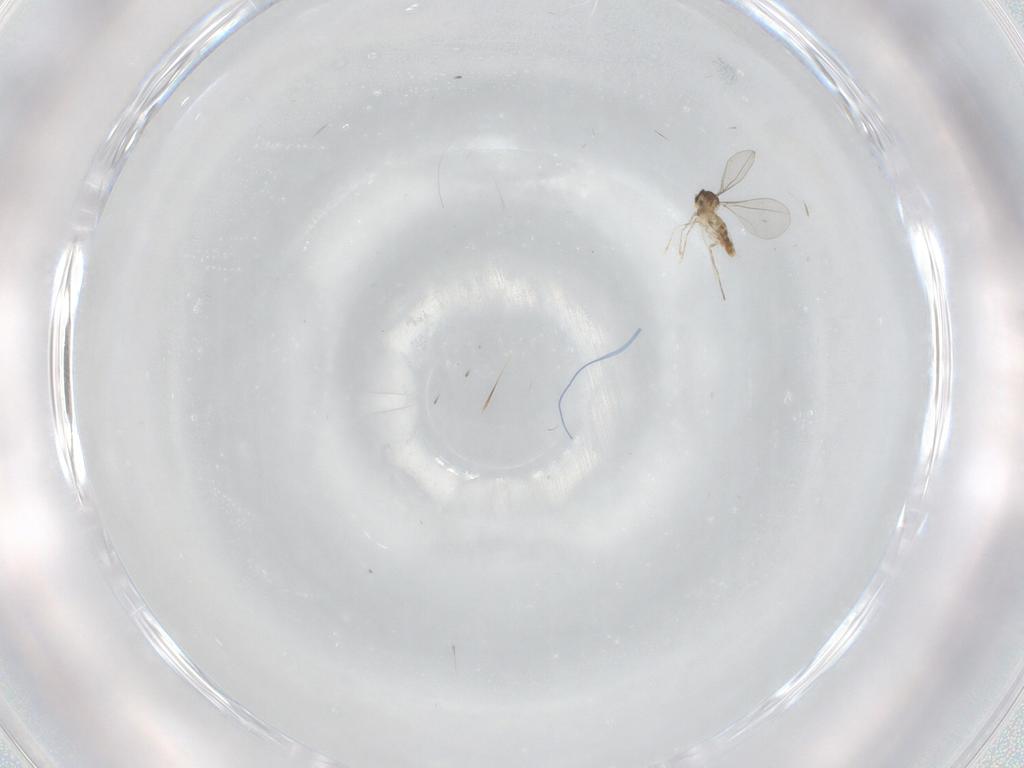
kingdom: Animalia
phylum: Arthropoda
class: Insecta
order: Diptera
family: Cecidomyiidae
